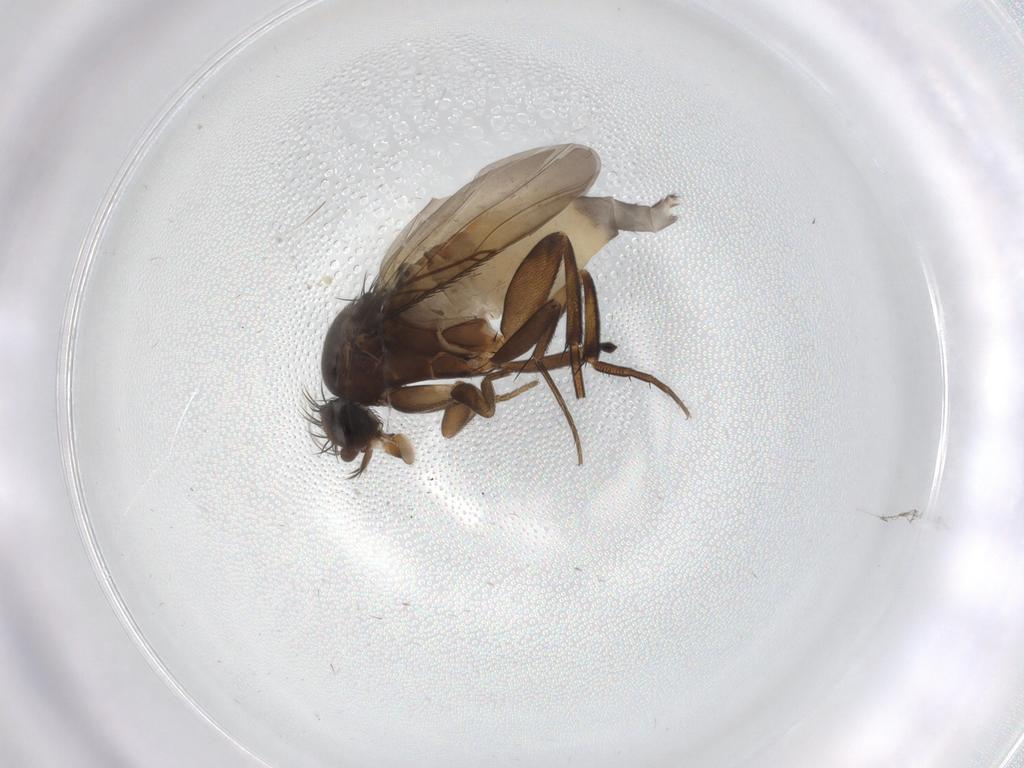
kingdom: Animalia
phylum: Arthropoda
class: Insecta
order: Diptera
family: Phoridae
